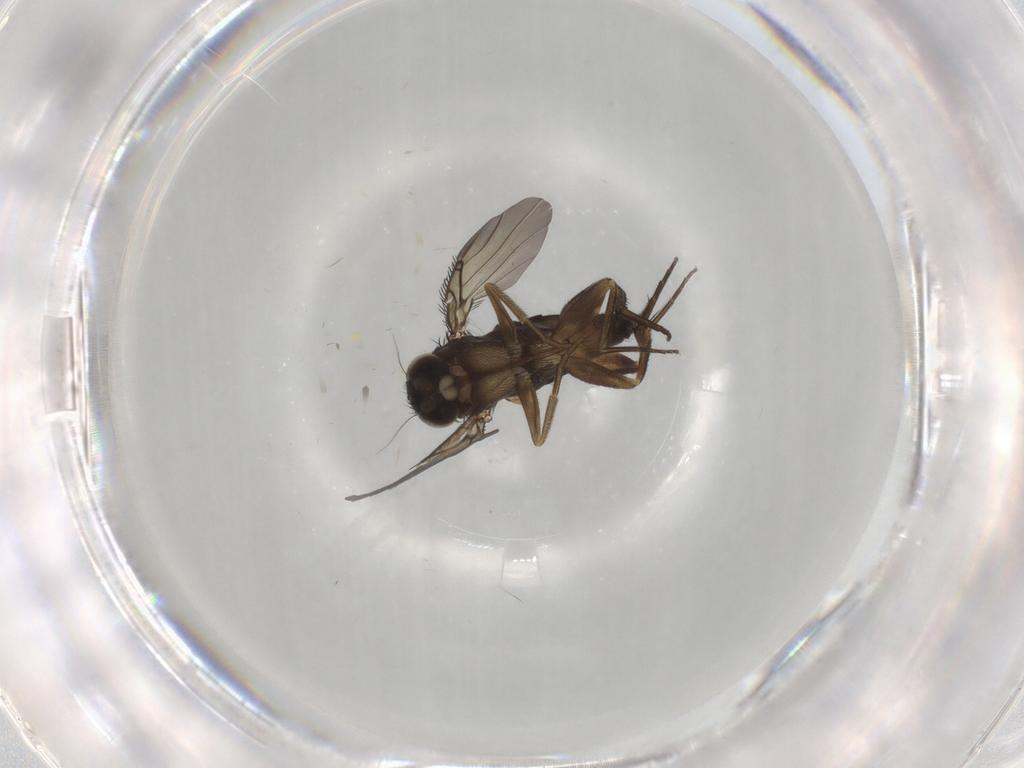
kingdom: Animalia
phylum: Arthropoda
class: Insecta
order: Diptera
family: Phoridae
